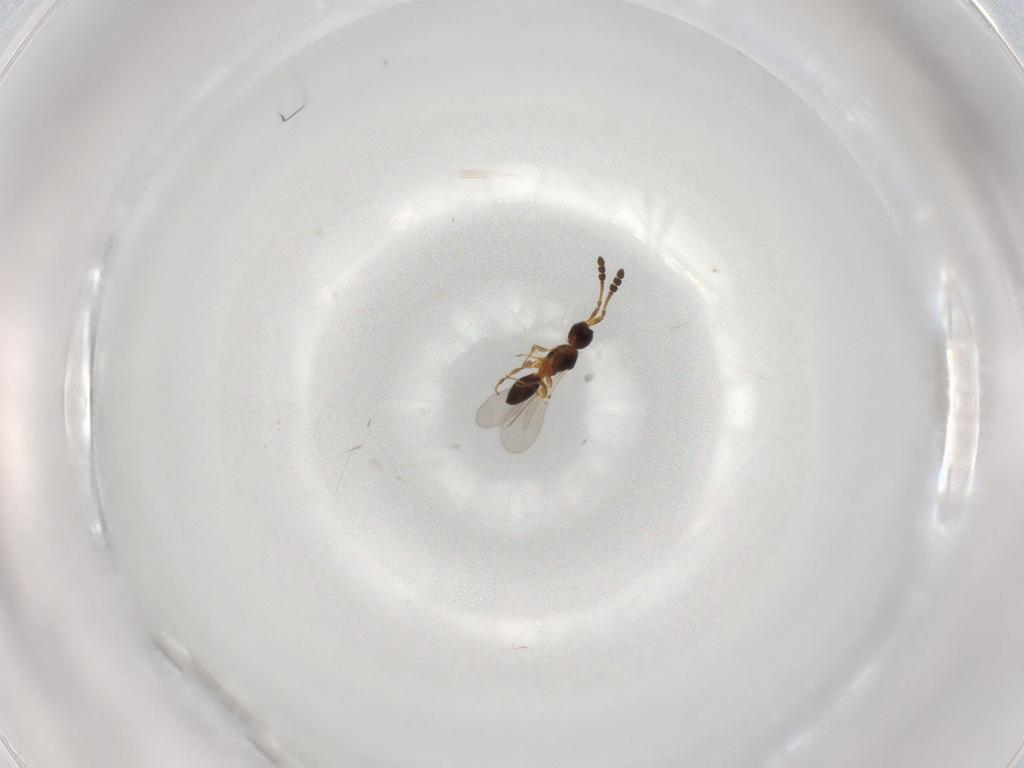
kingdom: Animalia
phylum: Arthropoda
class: Insecta
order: Hymenoptera
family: Diapriidae
